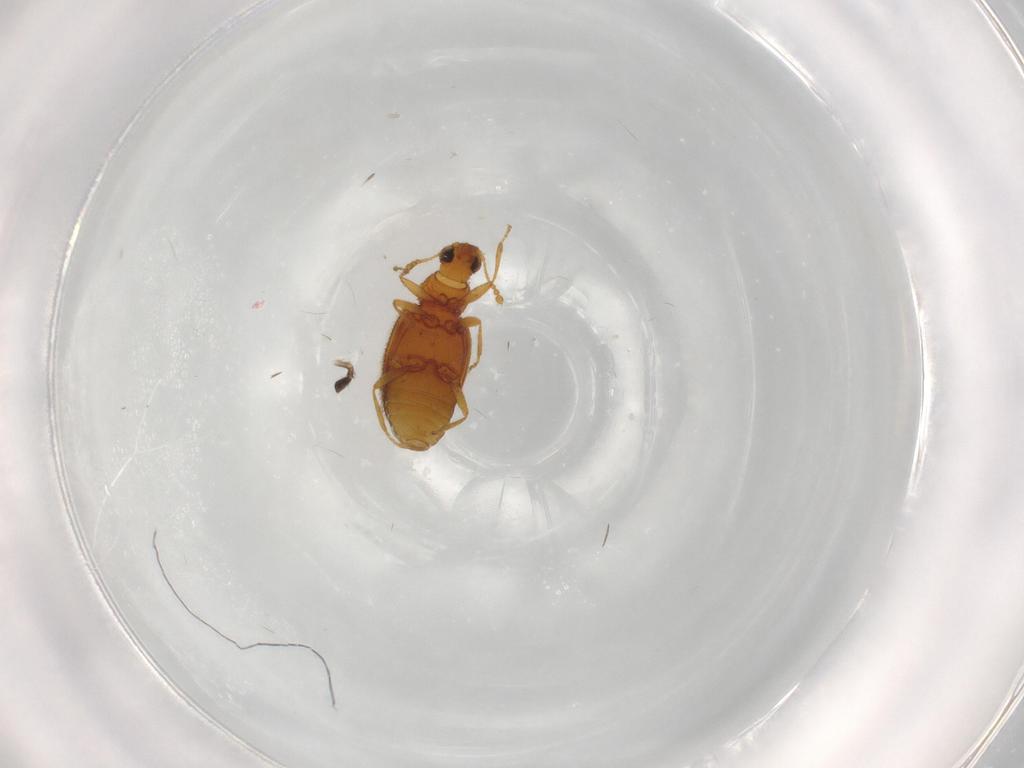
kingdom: Animalia
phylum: Arthropoda
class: Insecta
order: Coleoptera
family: Latridiidae
